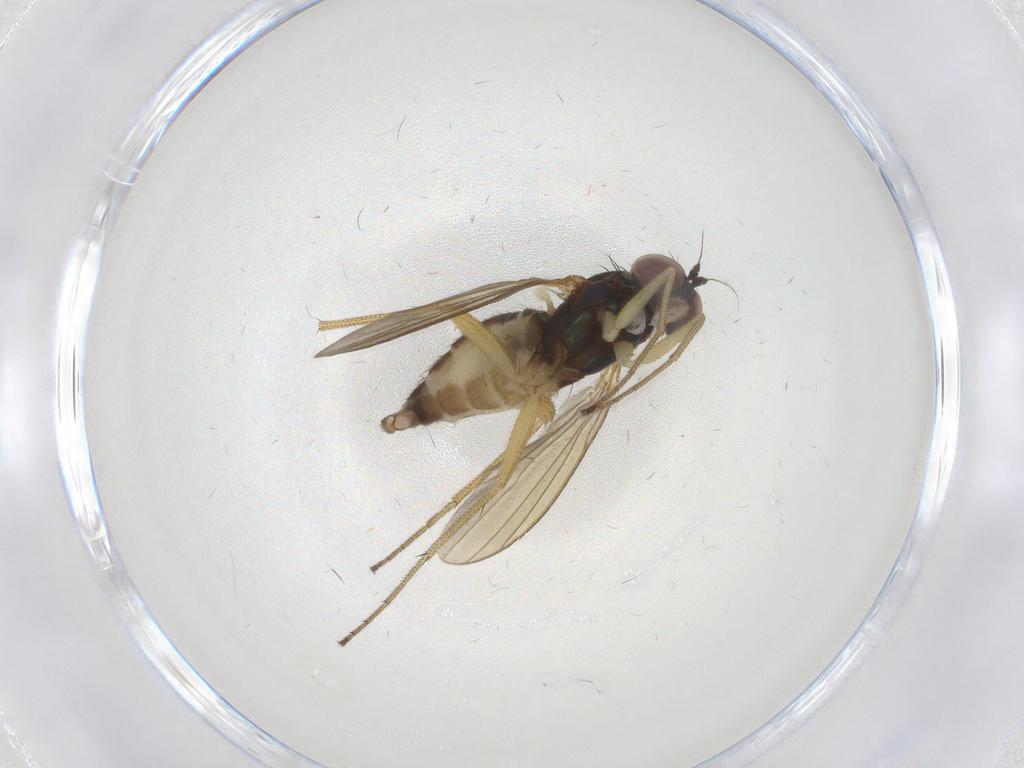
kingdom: Animalia
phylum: Arthropoda
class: Insecta
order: Diptera
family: Dolichopodidae
